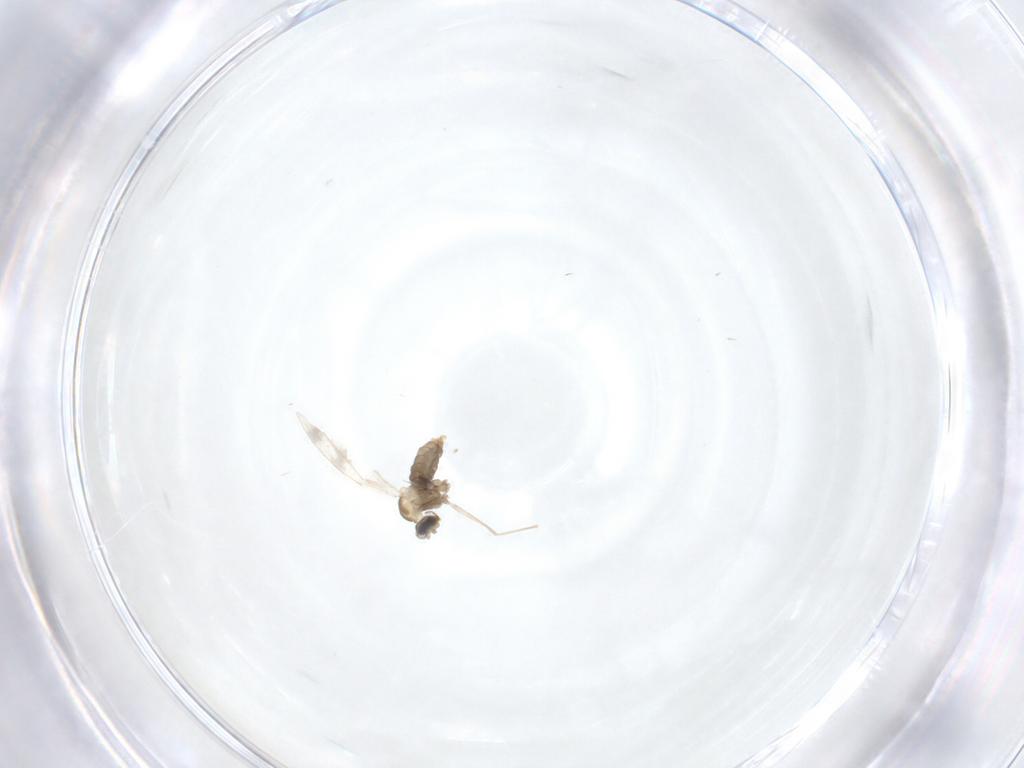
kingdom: Animalia
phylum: Arthropoda
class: Insecta
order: Diptera
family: Cecidomyiidae
